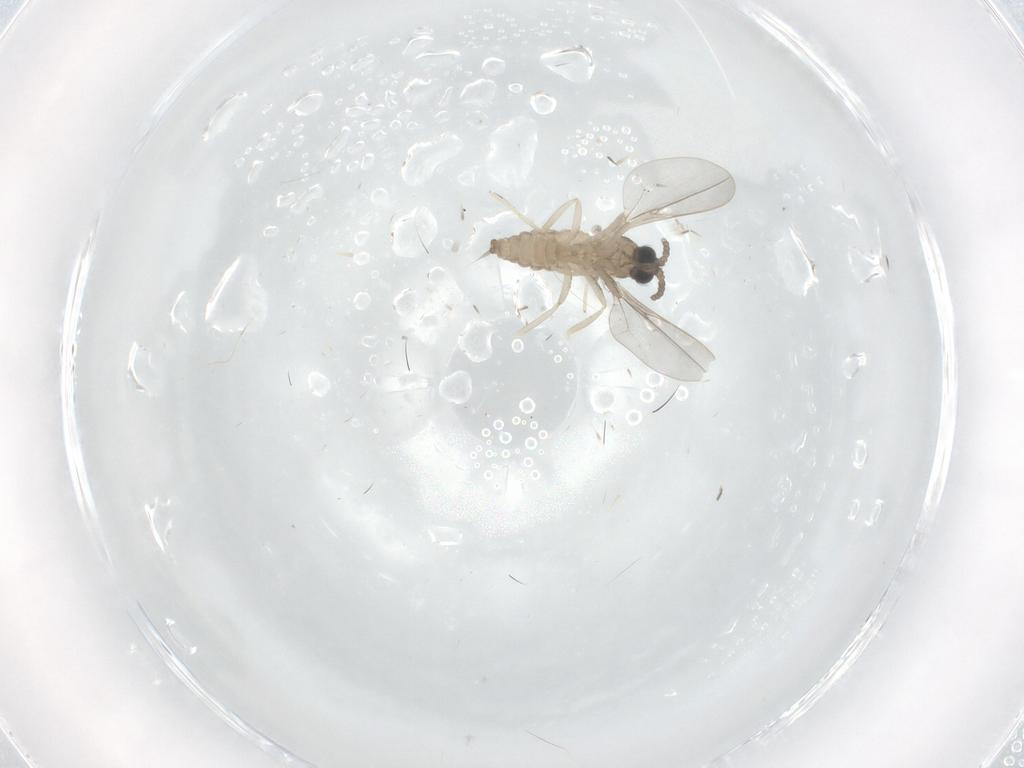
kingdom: Animalia
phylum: Arthropoda
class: Insecta
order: Diptera
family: Cecidomyiidae
